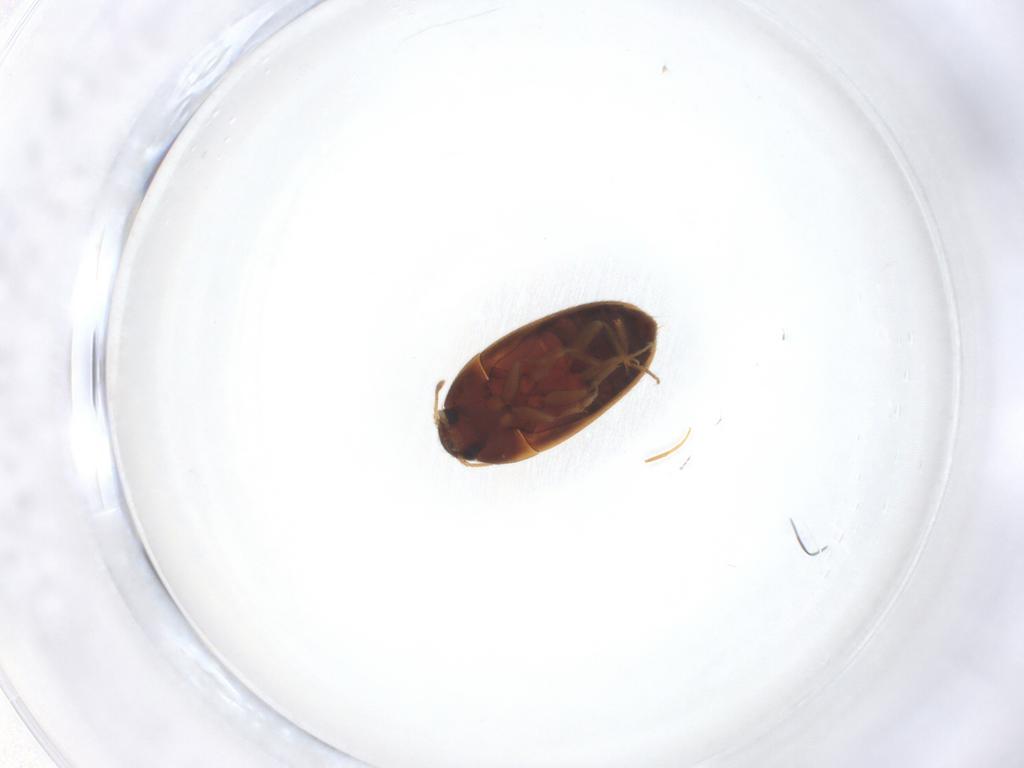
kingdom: Animalia
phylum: Arthropoda
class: Insecta
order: Coleoptera
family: Mycetophagidae
